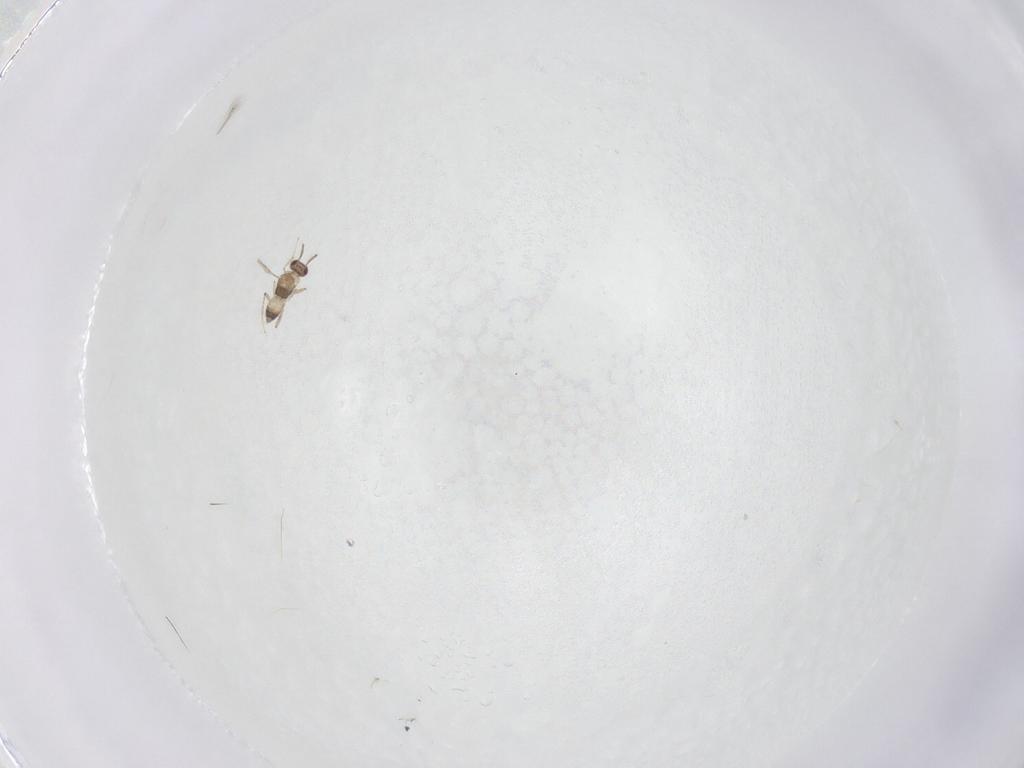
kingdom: Animalia
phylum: Arthropoda
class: Insecta
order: Hymenoptera
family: Mymaridae
